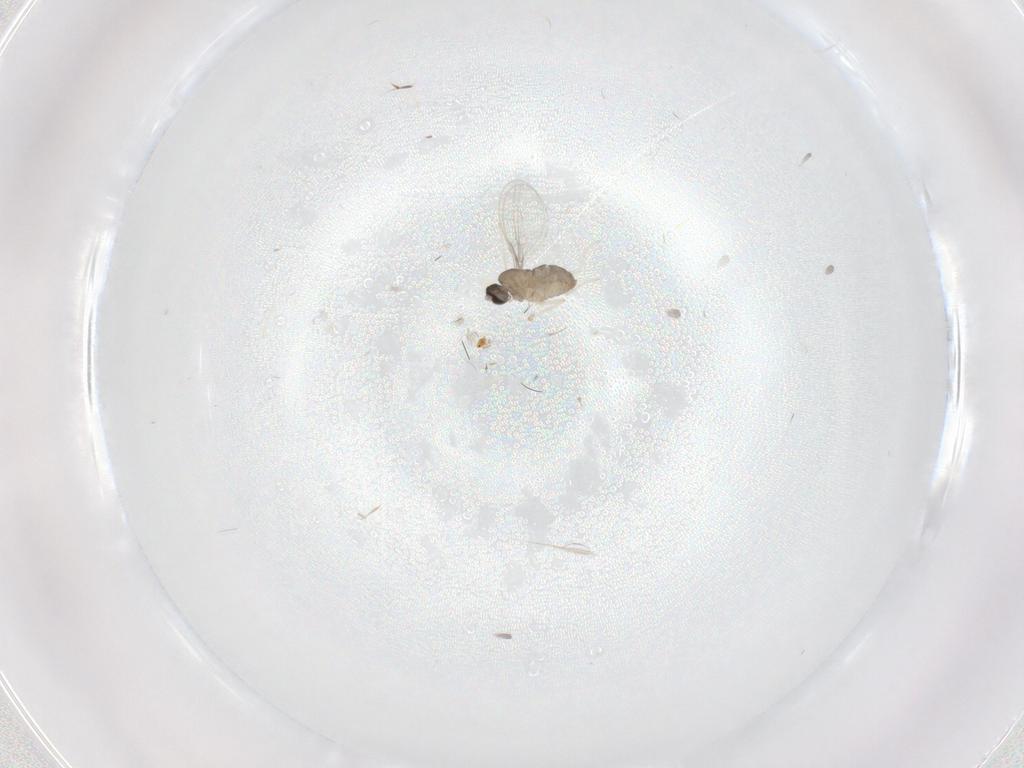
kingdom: Animalia
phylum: Arthropoda
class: Insecta
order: Diptera
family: Cecidomyiidae
